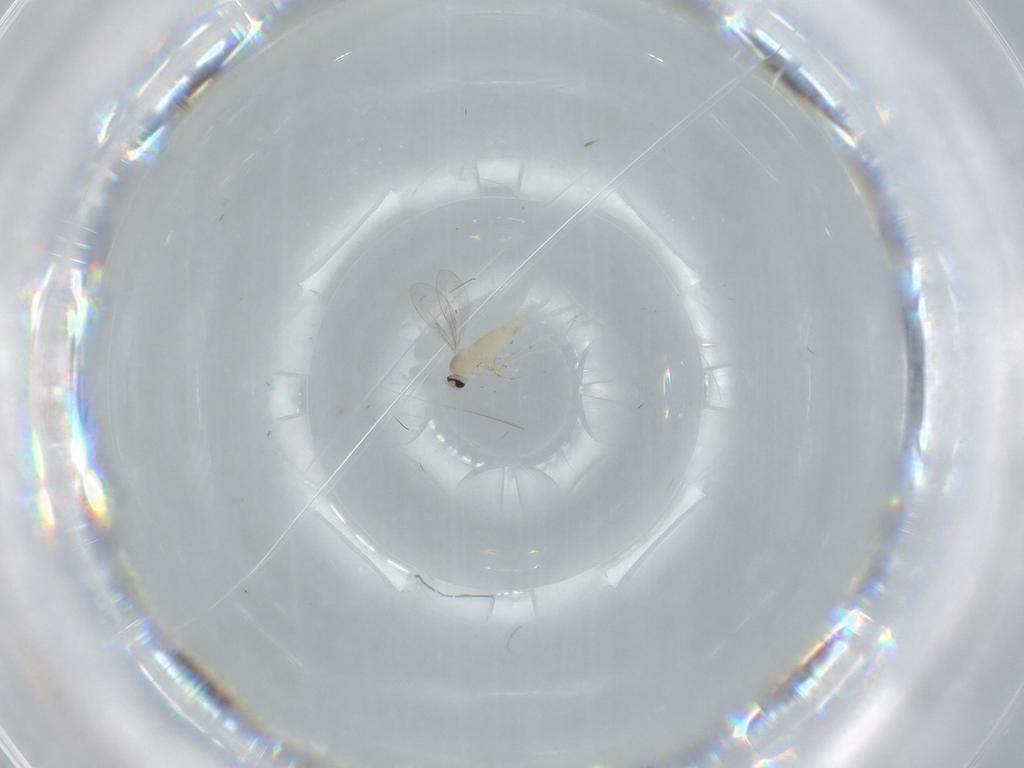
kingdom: Animalia
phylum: Arthropoda
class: Insecta
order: Diptera
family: Cecidomyiidae
